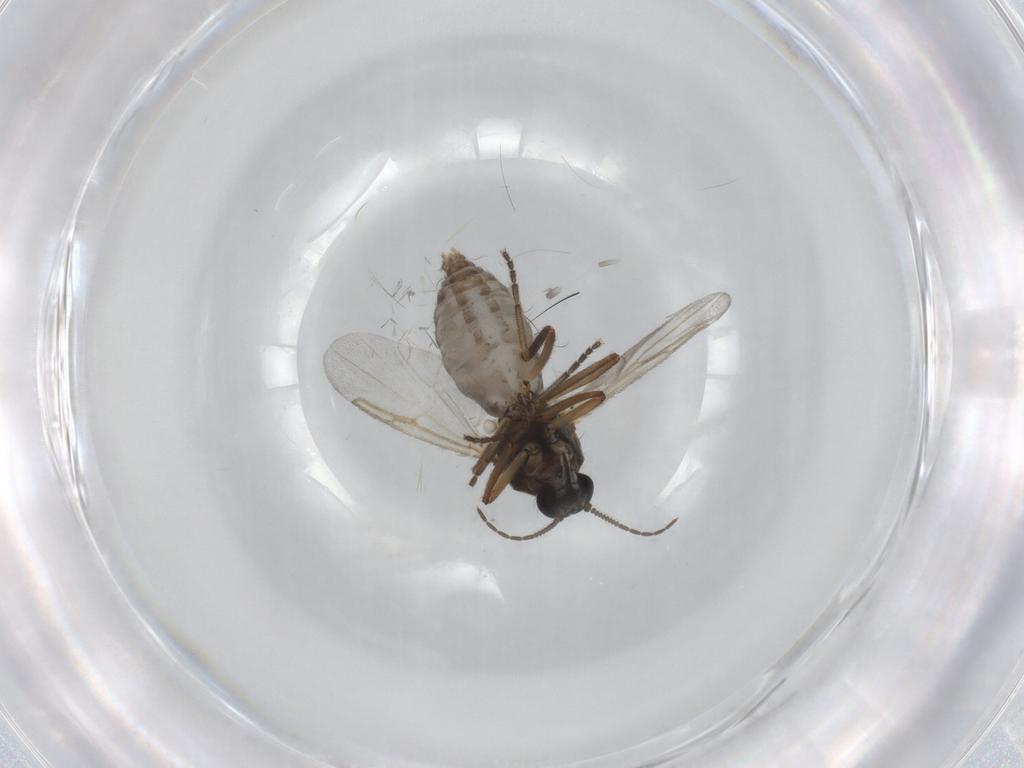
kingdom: Animalia
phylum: Arthropoda
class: Insecta
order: Diptera
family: Ceratopogonidae
